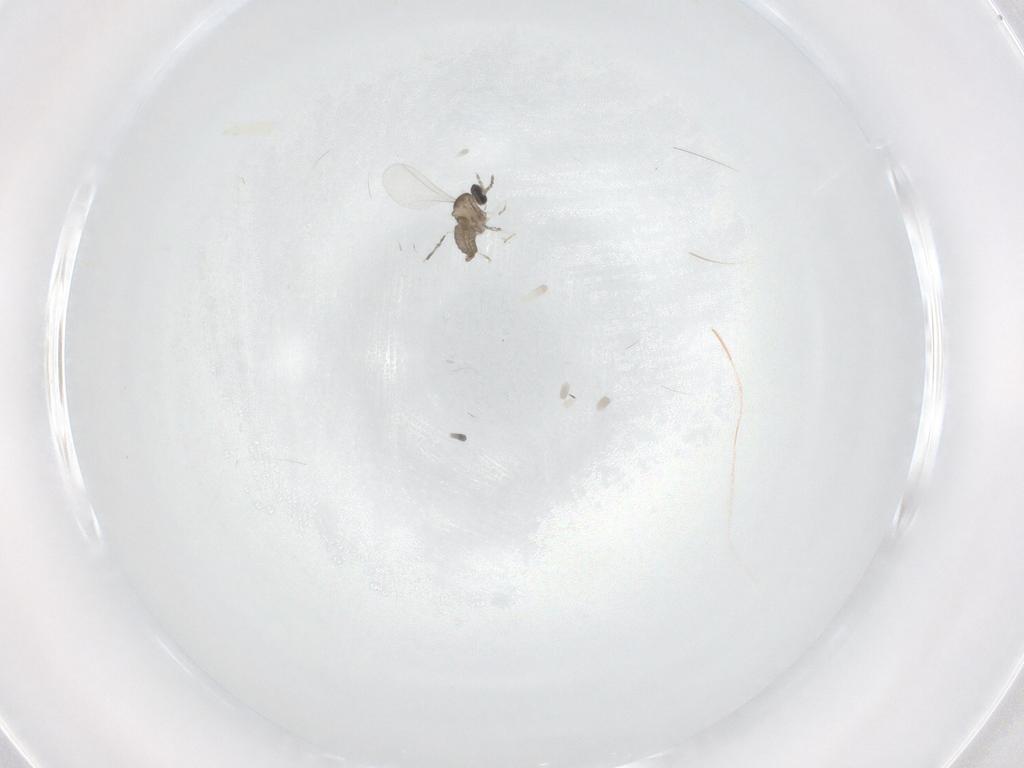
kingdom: Animalia
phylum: Arthropoda
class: Insecta
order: Diptera
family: Cecidomyiidae
